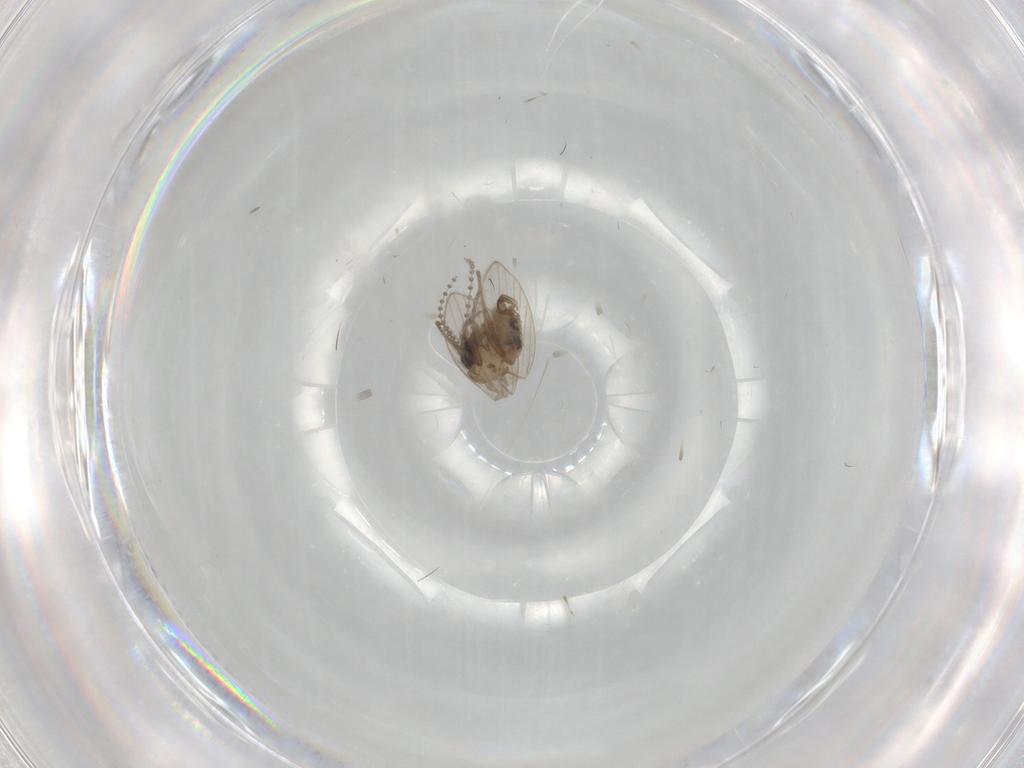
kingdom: Animalia
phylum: Arthropoda
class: Insecta
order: Diptera
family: Psychodidae
